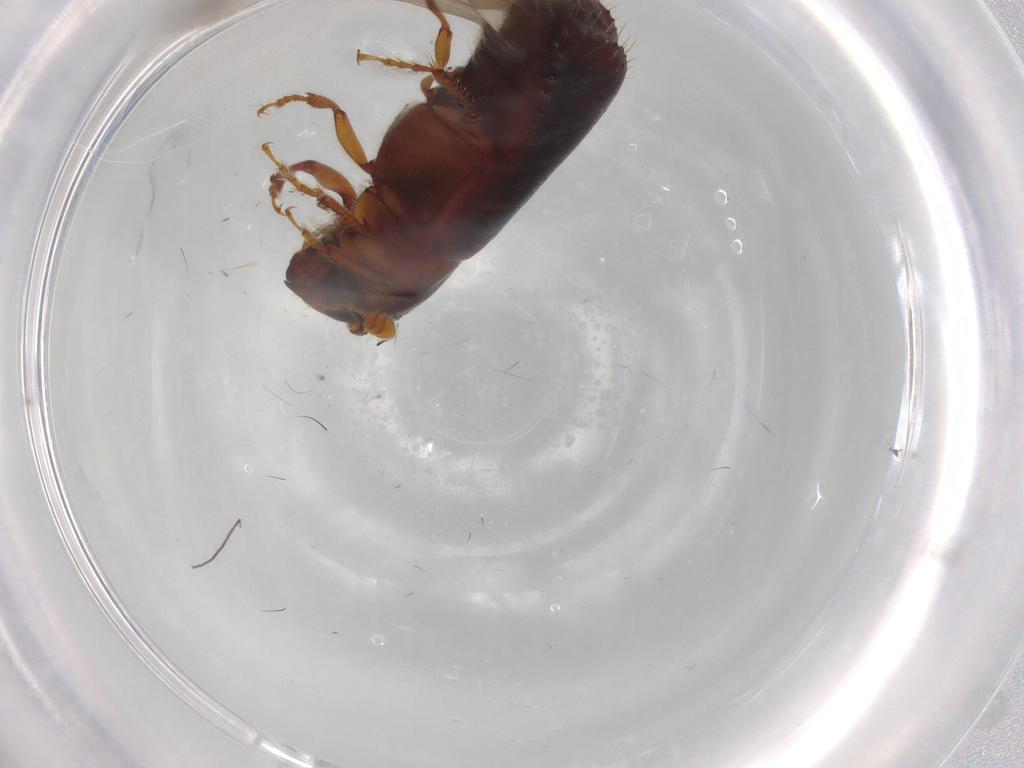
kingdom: Animalia
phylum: Arthropoda
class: Insecta
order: Coleoptera
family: Curculionidae
